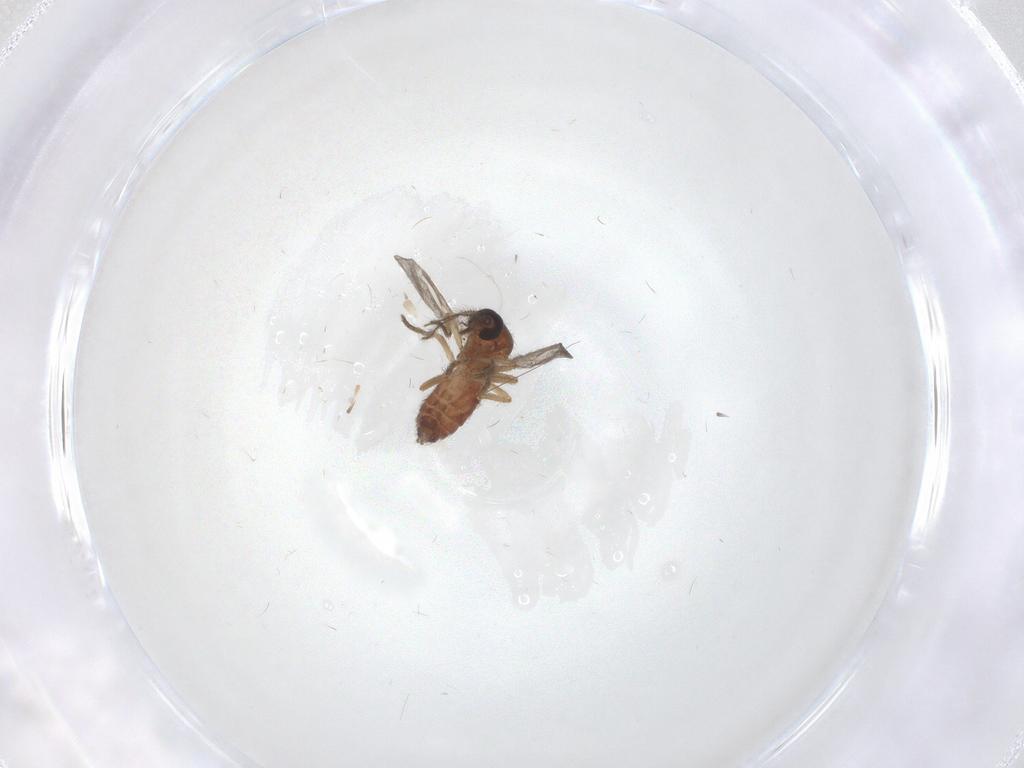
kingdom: Animalia
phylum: Arthropoda
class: Insecta
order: Diptera
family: Ceratopogonidae
